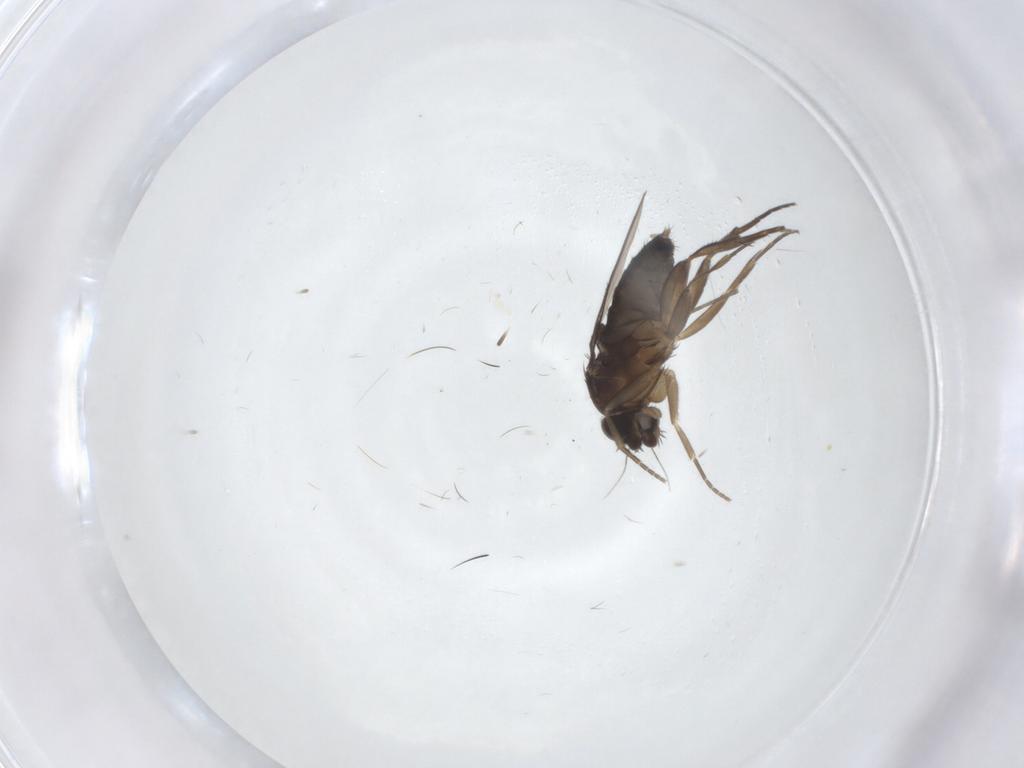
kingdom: Animalia
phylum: Arthropoda
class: Insecta
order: Diptera
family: Phoridae
